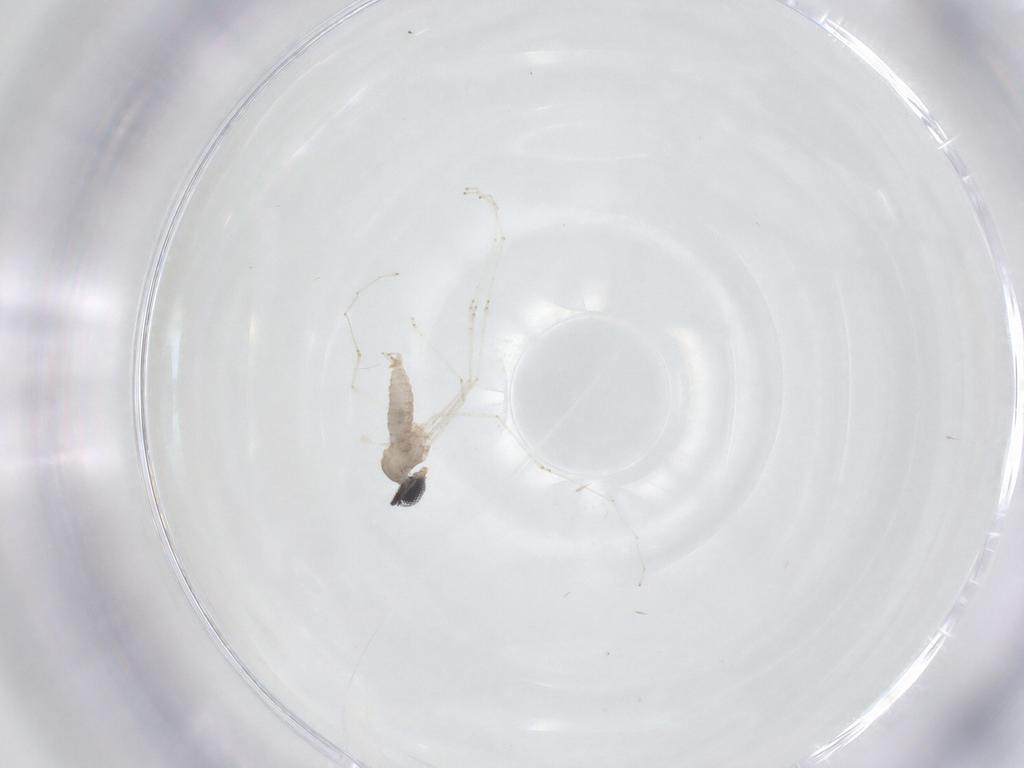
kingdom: Animalia
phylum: Arthropoda
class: Insecta
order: Diptera
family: Cecidomyiidae
